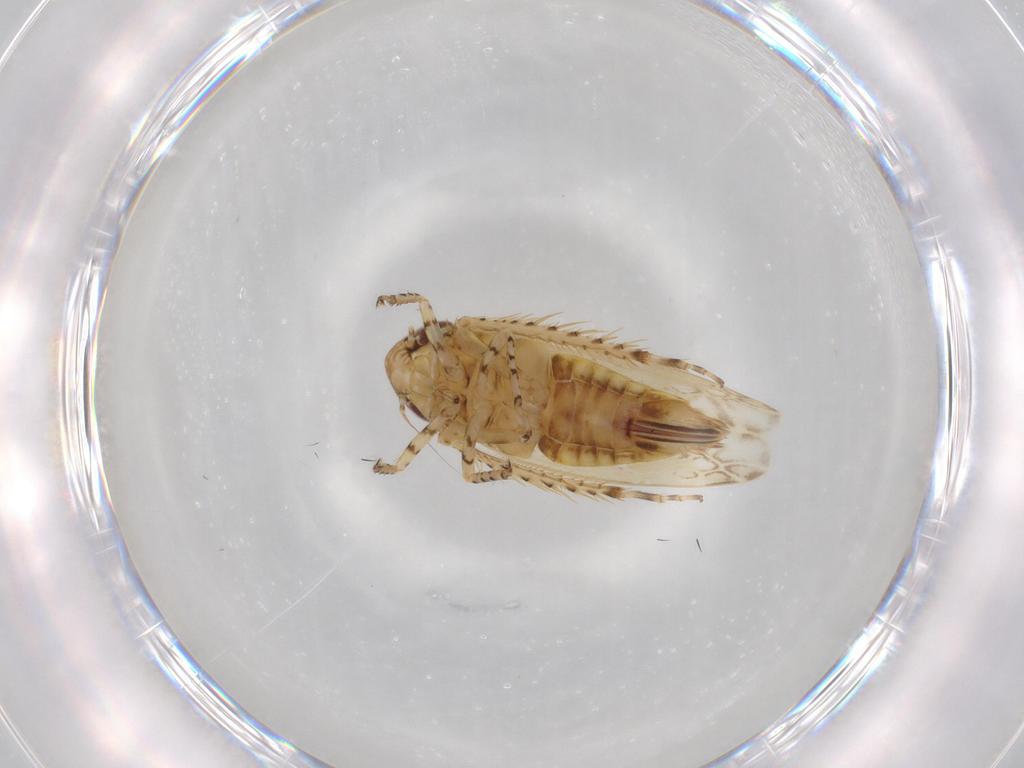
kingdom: Animalia
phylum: Arthropoda
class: Insecta
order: Hemiptera
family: Cicadellidae
